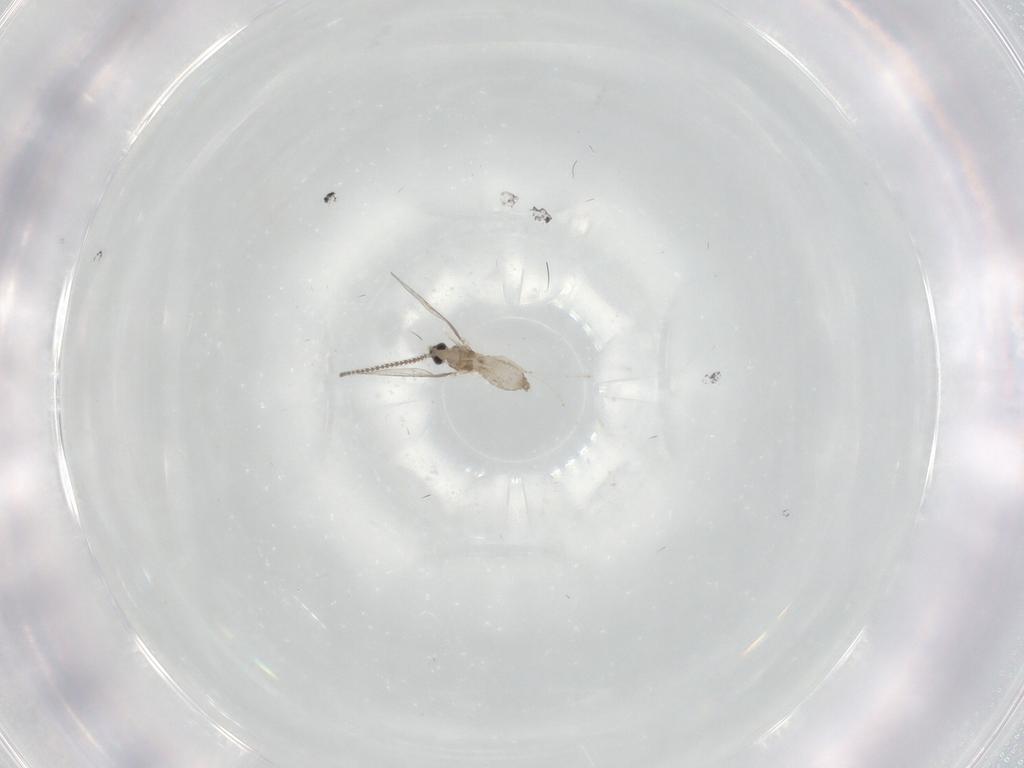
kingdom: Animalia
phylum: Arthropoda
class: Insecta
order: Diptera
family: Cecidomyiidae
